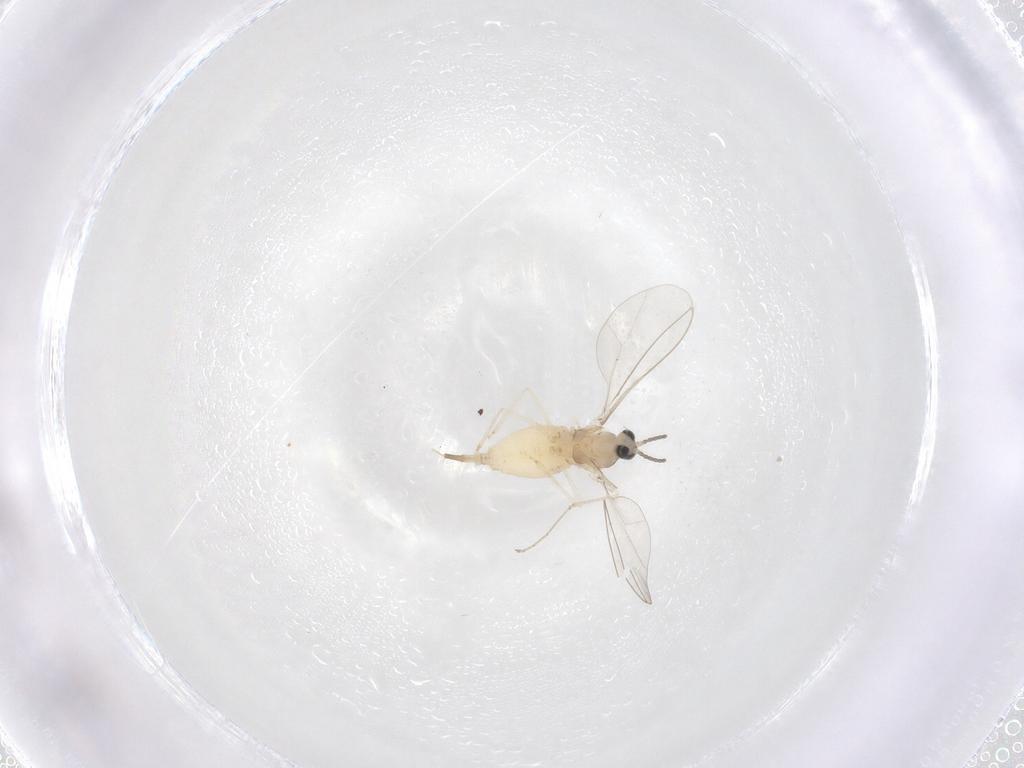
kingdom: Animalia
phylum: Arthropoda
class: Insecta
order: Diptera
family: Cecidomyiidae
